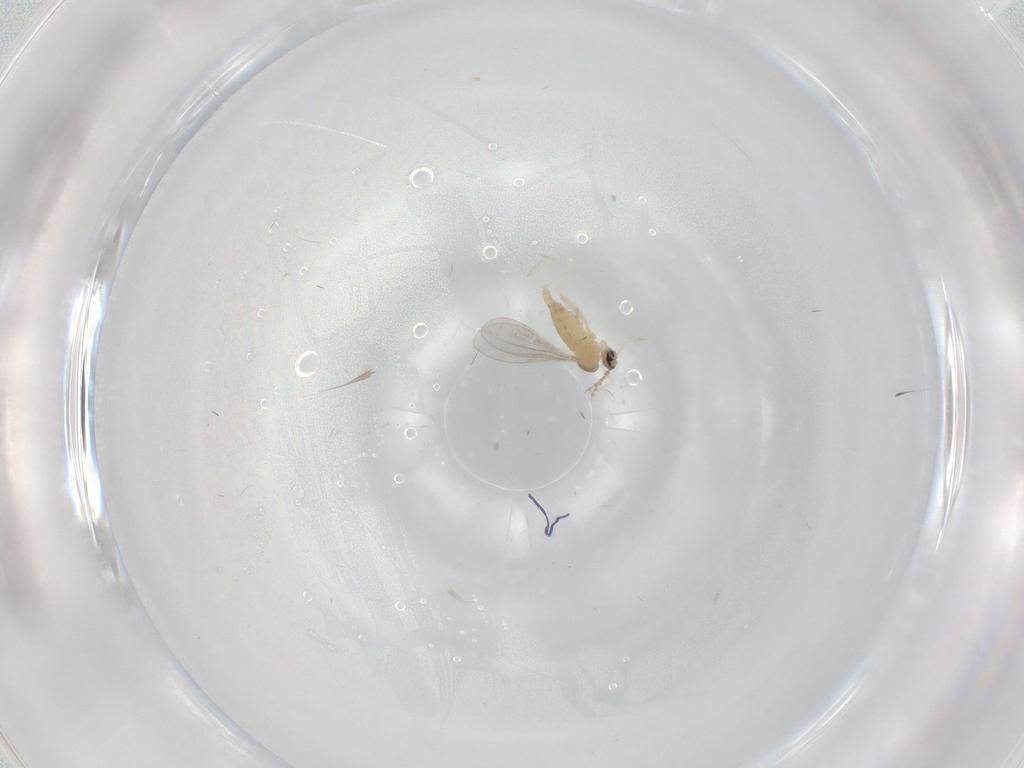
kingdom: Animalia
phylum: Arthropoda
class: Insecta
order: Diptera
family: Cecidomyiidae
